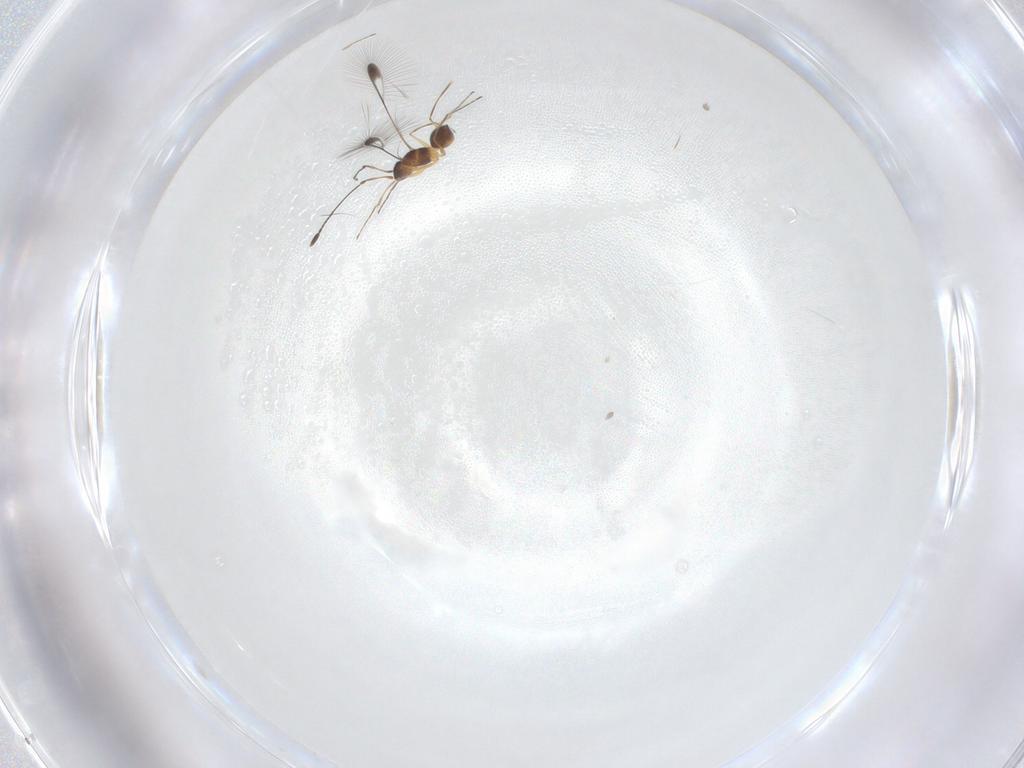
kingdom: Animalia
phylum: Arthropoda
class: Insecta
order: Hymenoptera
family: Mymaridae
